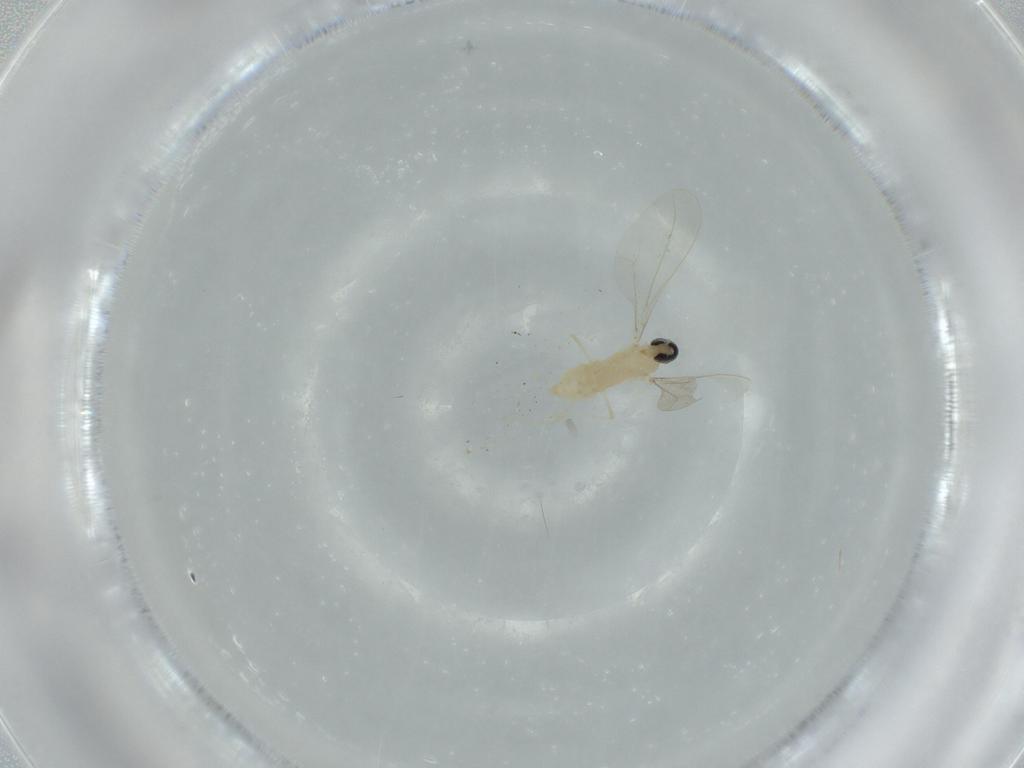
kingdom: Animalia
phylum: Arthropoda
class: Insecta
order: Diptera
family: Cecidomyiidae
